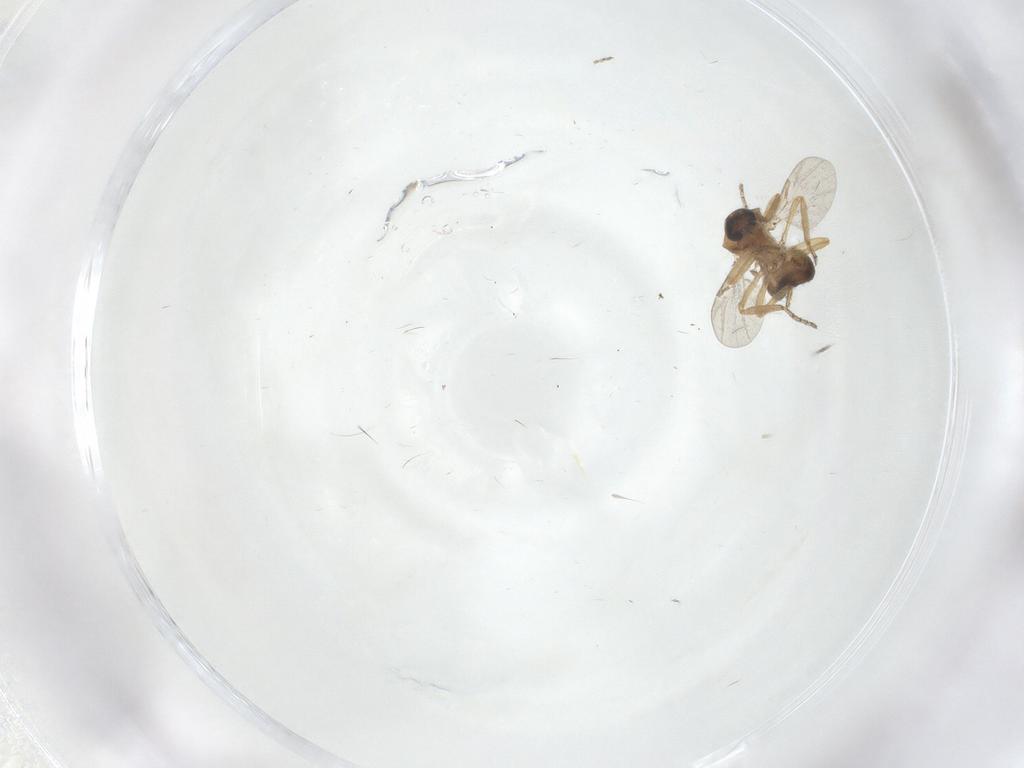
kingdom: Animalia
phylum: Arthropoda
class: Insecta
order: Diptera
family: Ceratopogonidae
